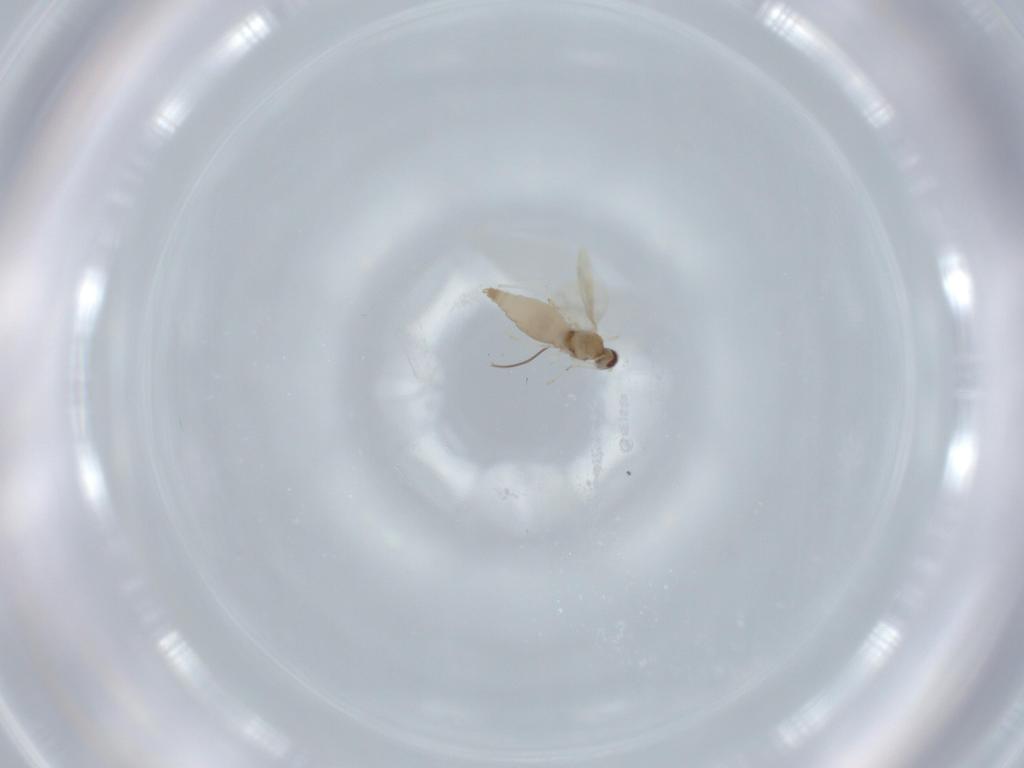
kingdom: Animalia
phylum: Arthropoda
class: Insecta
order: Diptera
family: Cecidomyiidae
